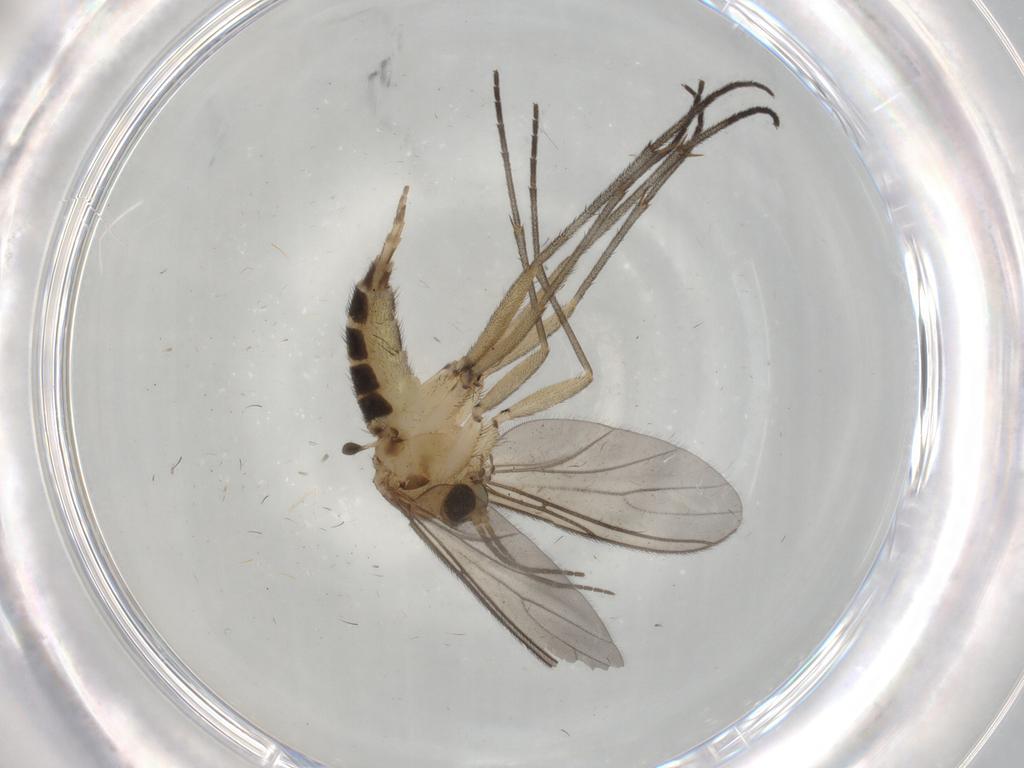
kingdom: Animalia
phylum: Arthropoda
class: Insecta
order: Diptera
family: Sciaridae
